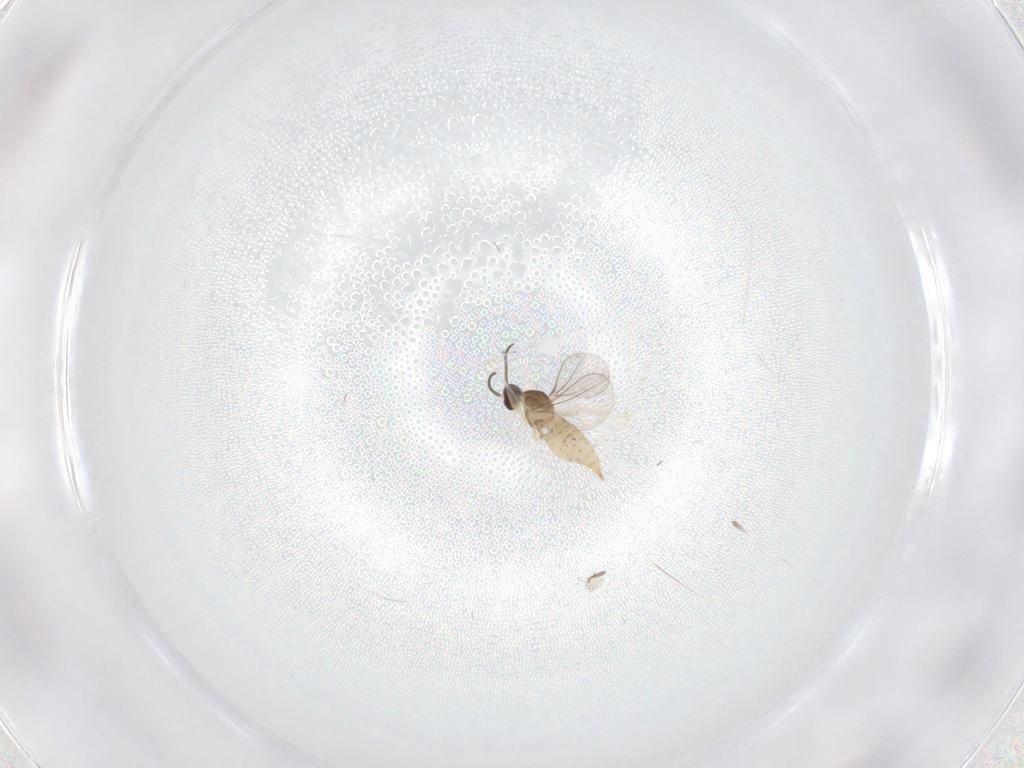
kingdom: Animalia
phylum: Arthropoda
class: Insecta
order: Diptera
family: Cecidomyiidae
